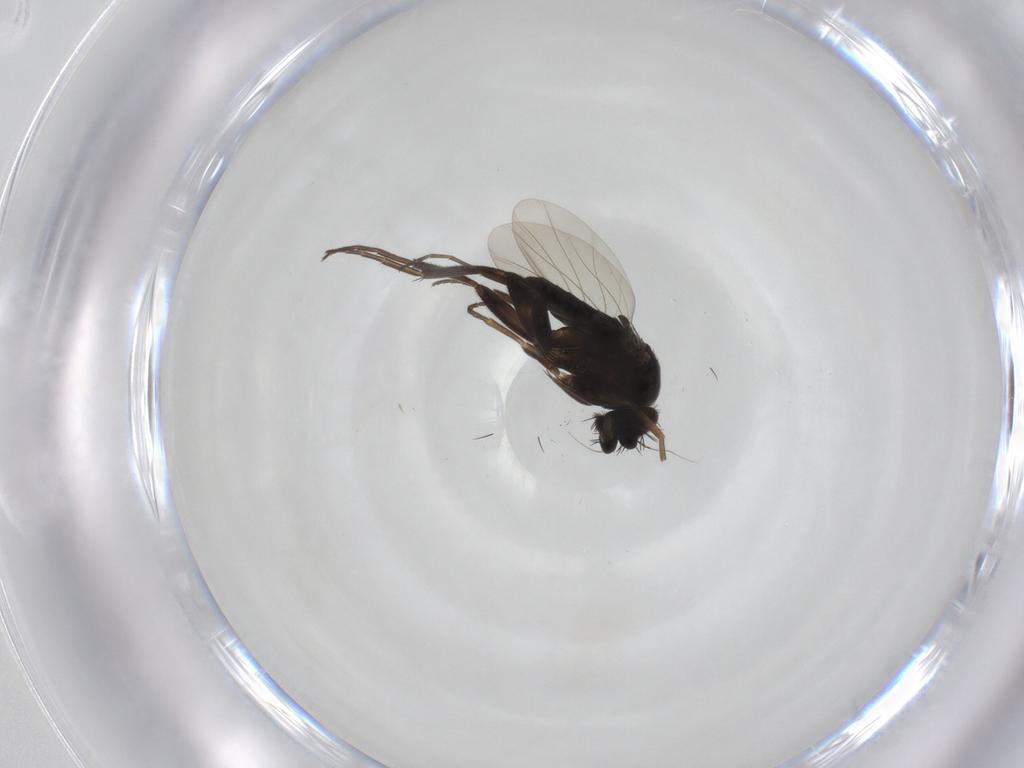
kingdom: Animalia
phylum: Arthropoda
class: Insecta
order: Diptera
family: Phoridae
